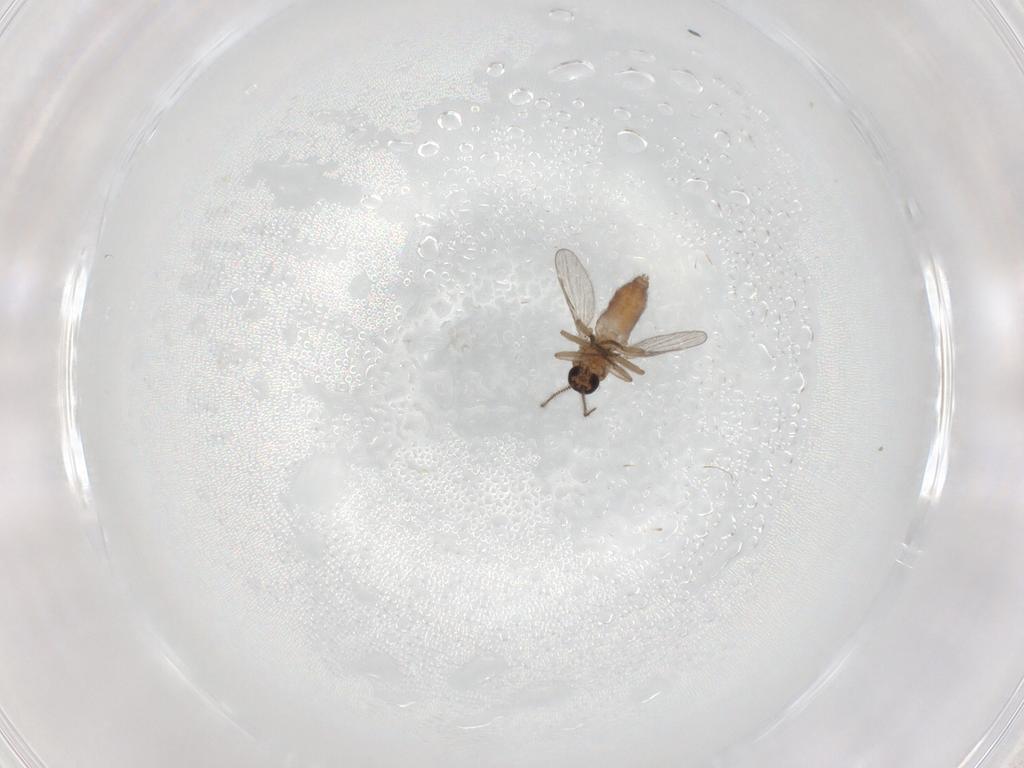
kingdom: Animalia
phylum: Arthropoda
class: Insecta
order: Diptera
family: Ceratopogonidae
